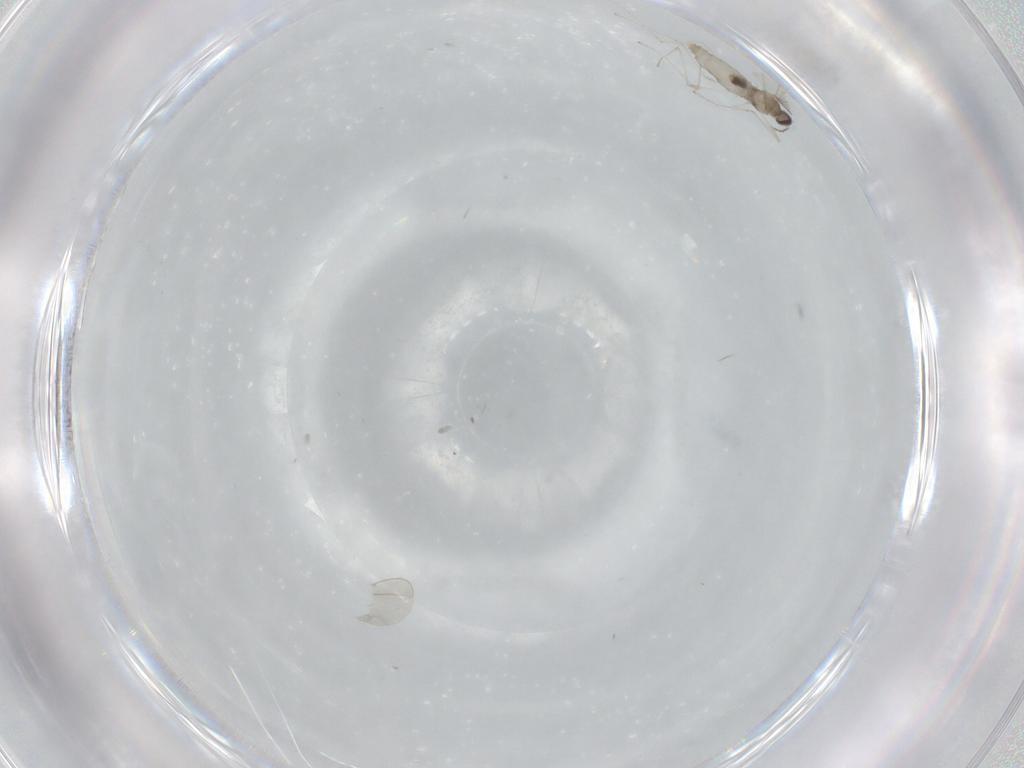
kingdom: Animalia
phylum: Arthropoda
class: Insecta
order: Diptera
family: Cecidomyiidae
